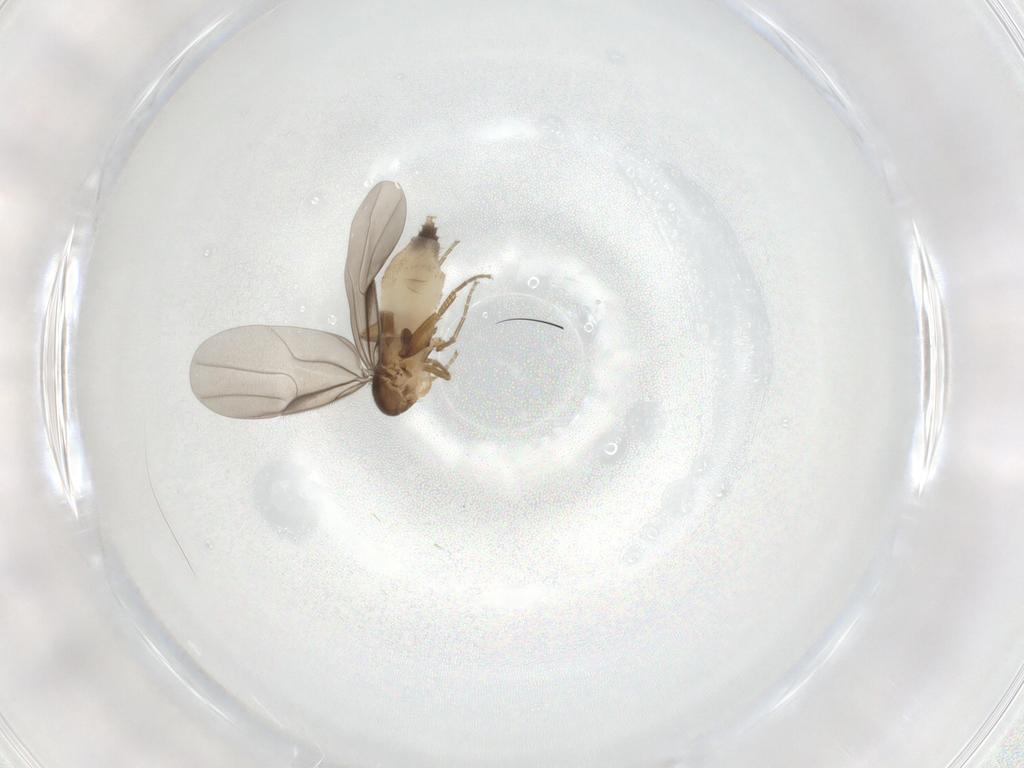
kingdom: Animalia
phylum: Arthropoda
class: Insecta
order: Diptera
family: Phoridae
